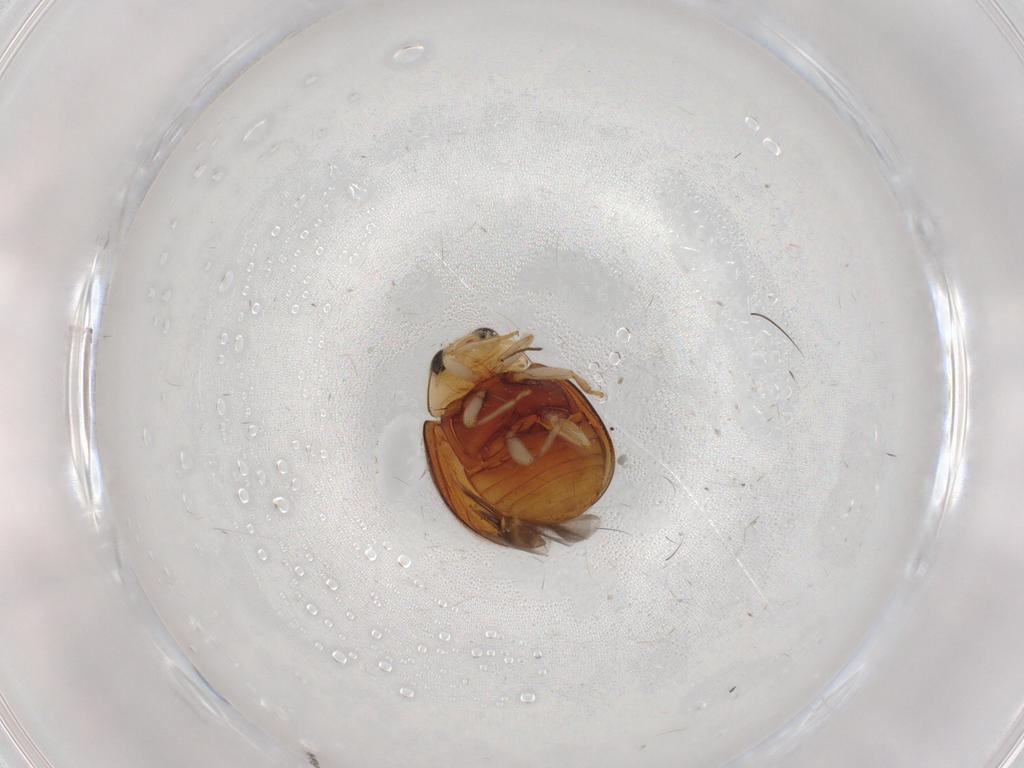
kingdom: Animalia
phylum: Arthropoda
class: Insecta
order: Coleoptera
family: Coccinellidae
